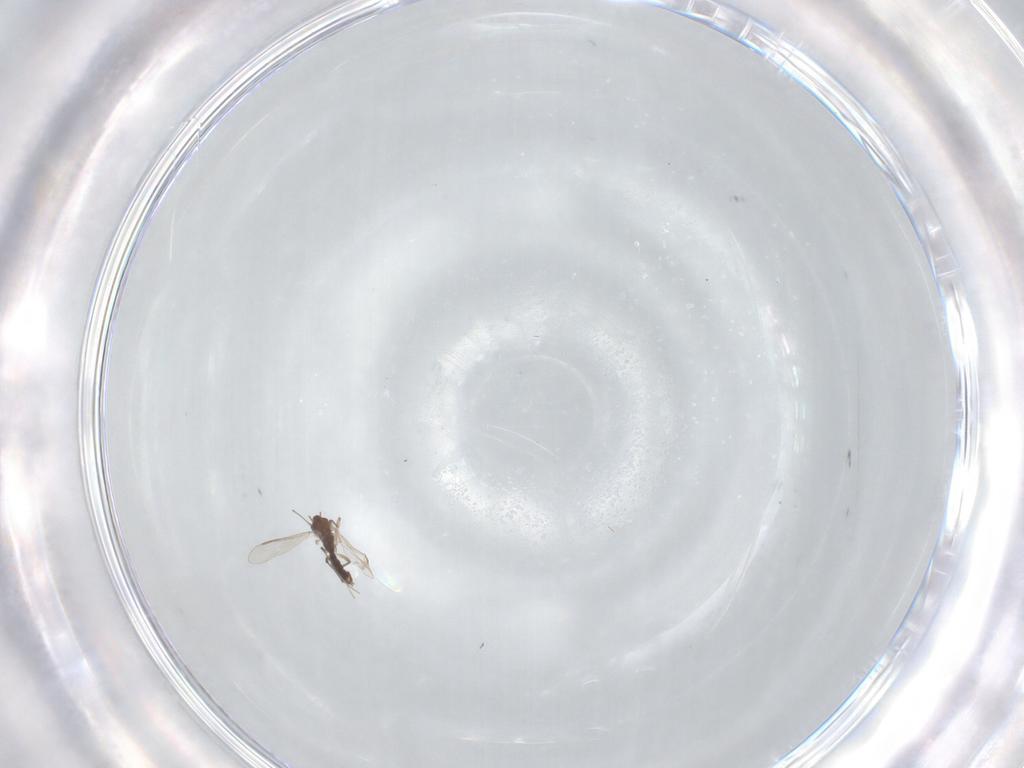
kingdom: Animalia
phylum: Arthropoda
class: Insecta
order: Diptera
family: Chironomidae
